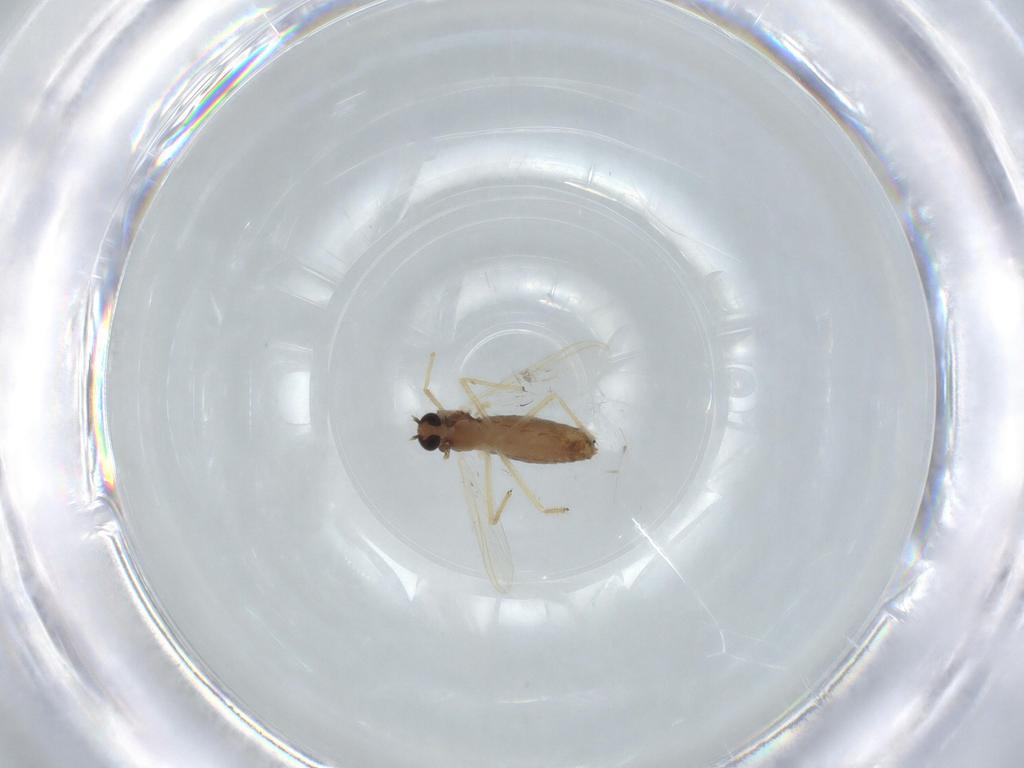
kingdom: Animalia
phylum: Arthropoda
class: Insecta
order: Diptera
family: Chironomidae
